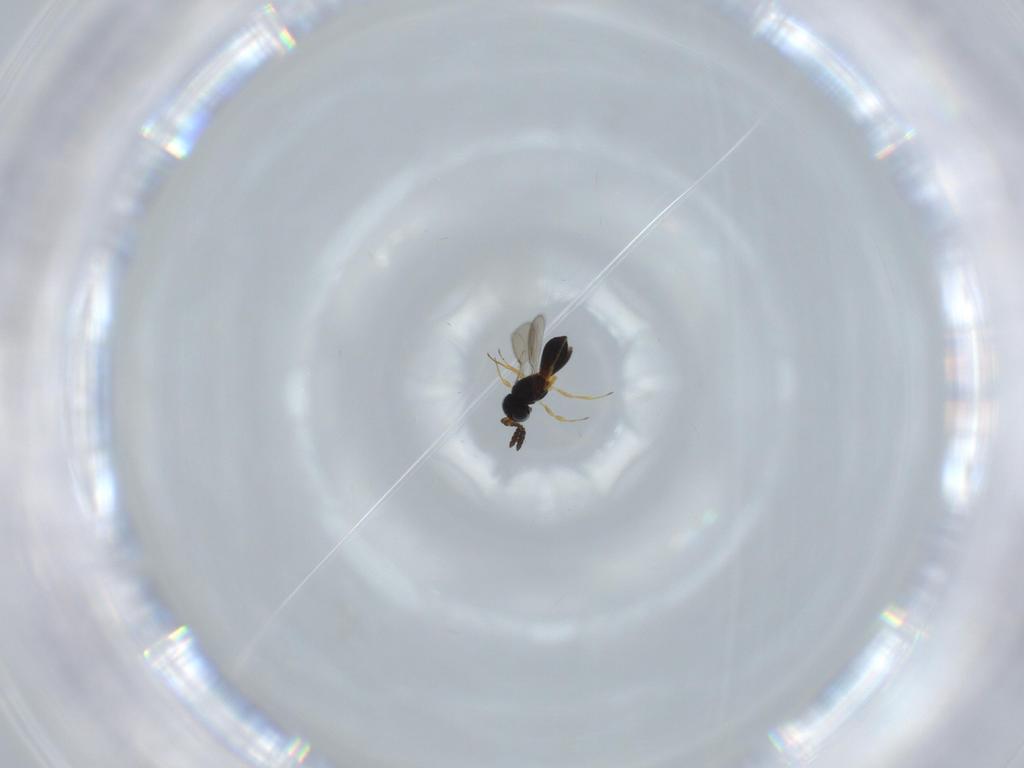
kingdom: Animalia
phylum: Arthropoda
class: Insecta
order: Hymenoptera
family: Scelionidae
